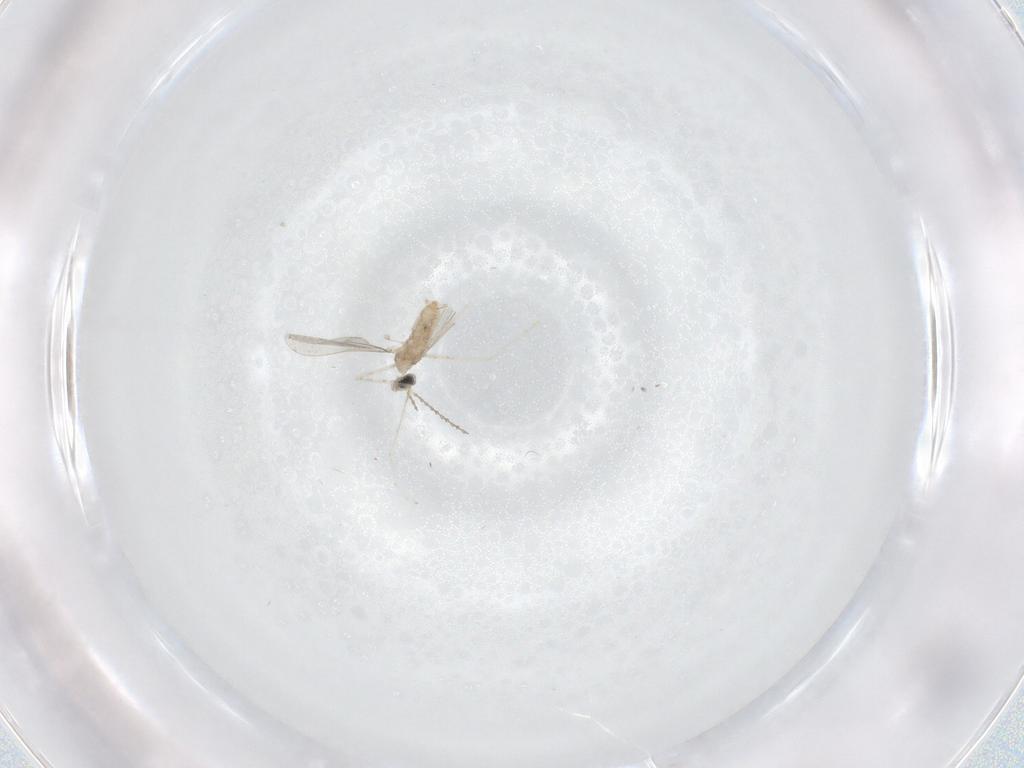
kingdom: Animalia
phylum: Arthropoda
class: Insecta
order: Diptera
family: Cecidomyiidae
